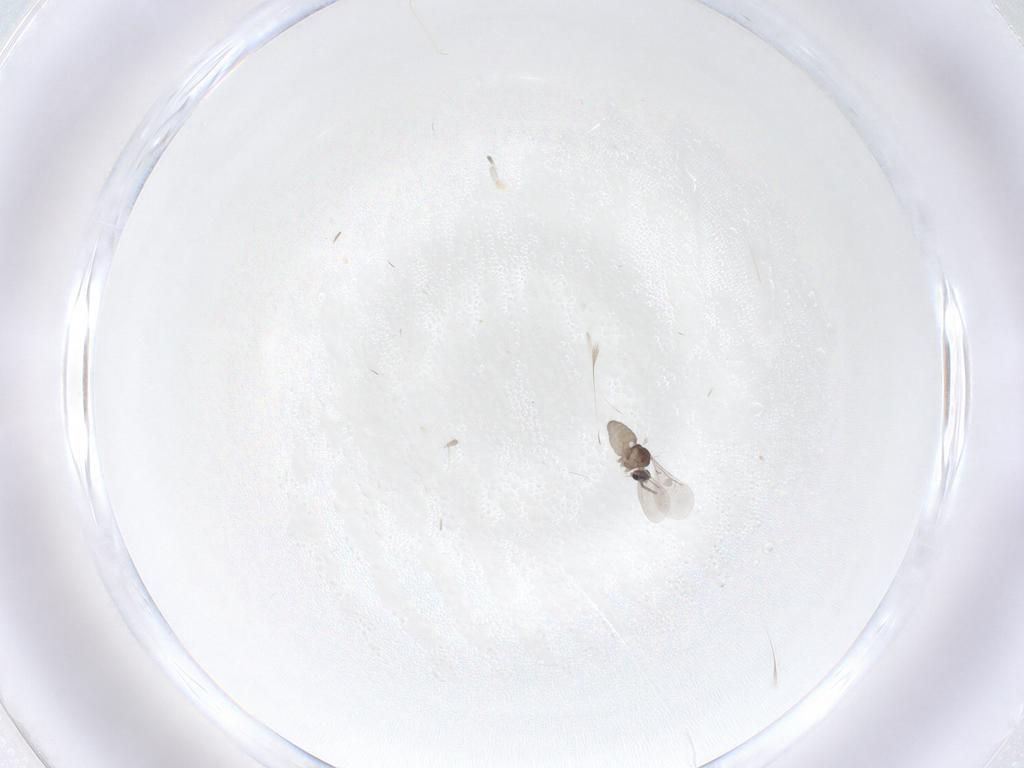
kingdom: Animalia
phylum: Arthropoda
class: Insecta
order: Diptera
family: Cecidomyiidae
